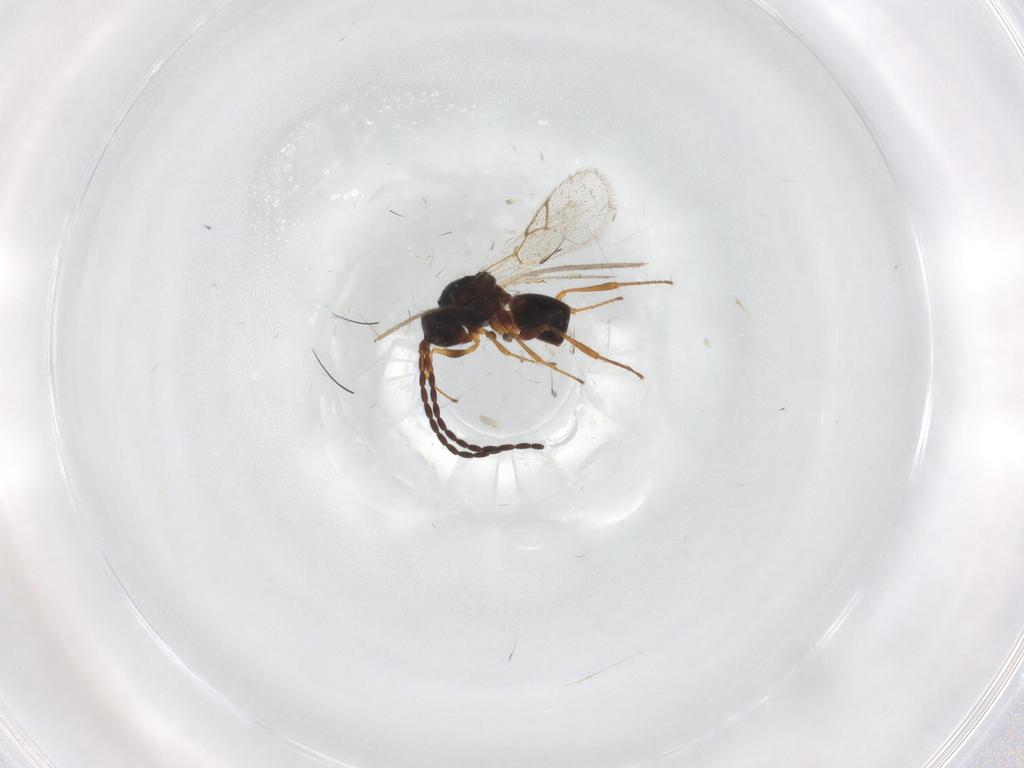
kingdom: Animalia
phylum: Arthropoda
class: Insecta
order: Hymenoptera
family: Figitidae
